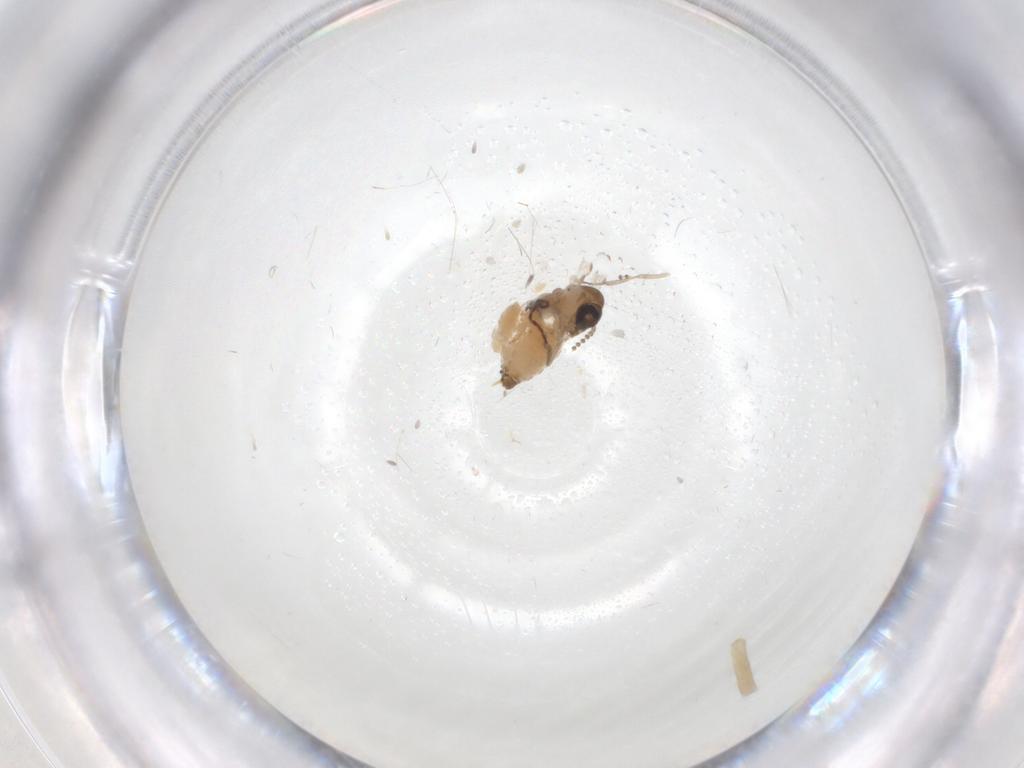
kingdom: Animalia
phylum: Arthropoda
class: Insecta
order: Diptera
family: Psychodidae
